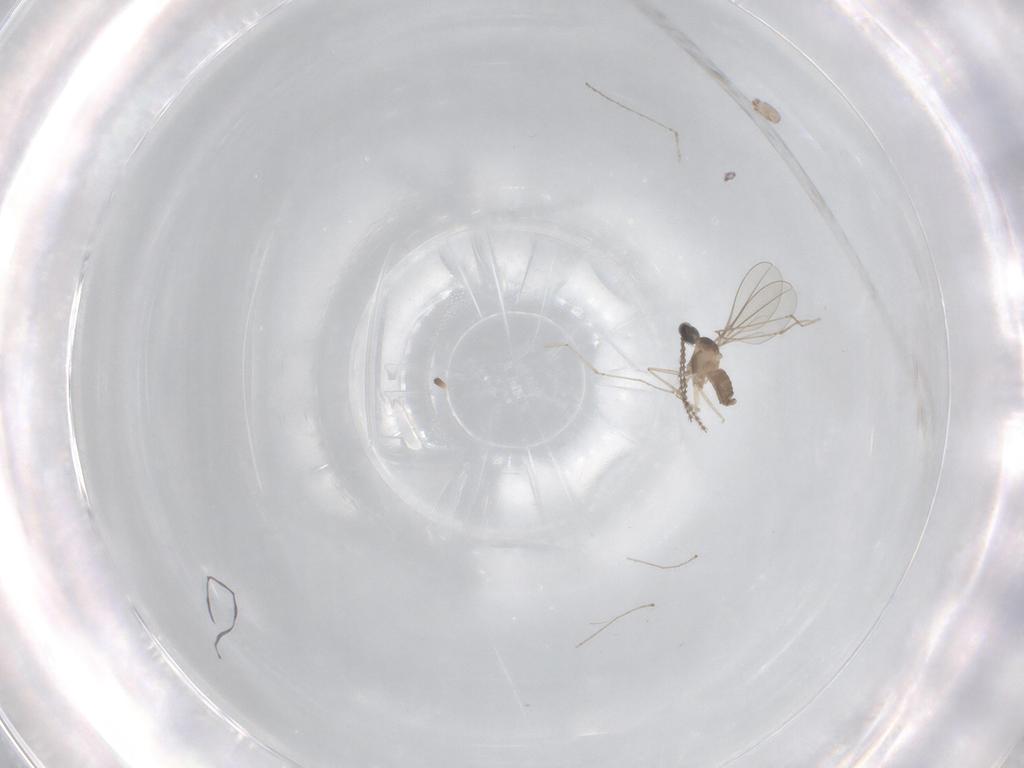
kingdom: Animalia
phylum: Arthropoda
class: Insecta
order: Diptera
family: Cecidomyiidae
